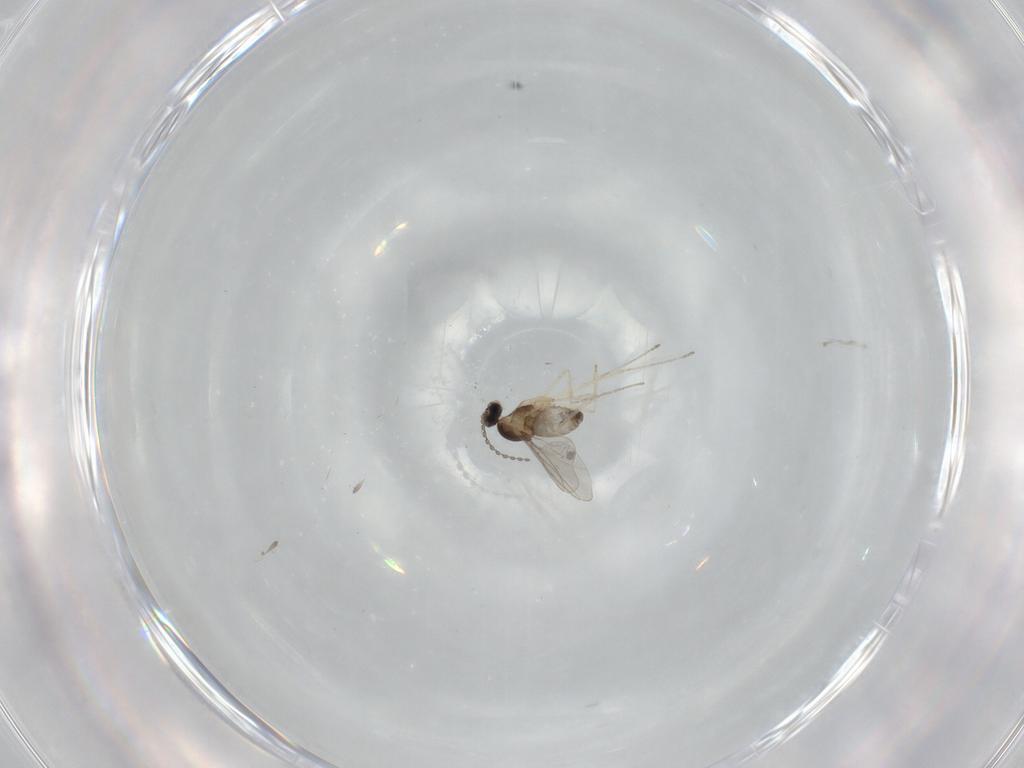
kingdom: Animalia
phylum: Arthropoda
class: Insecta
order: Diptera
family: Ceratopogonidae
